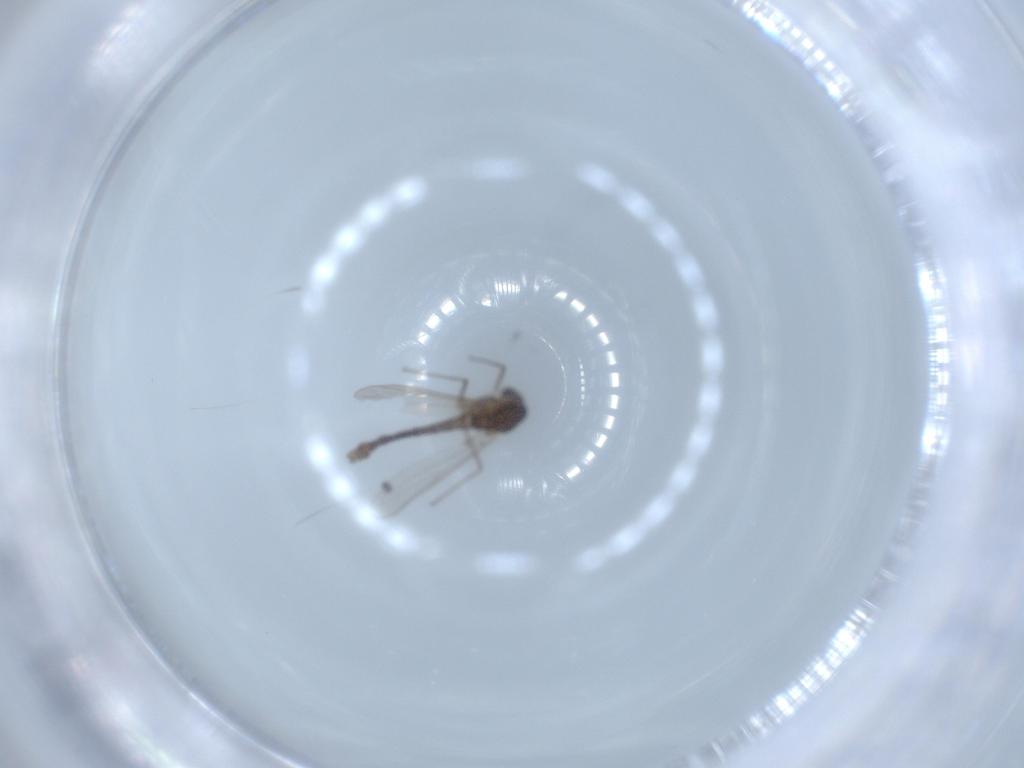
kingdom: Animalia
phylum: Arthropoda
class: Insecta
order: Diptera
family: Chironomidae
